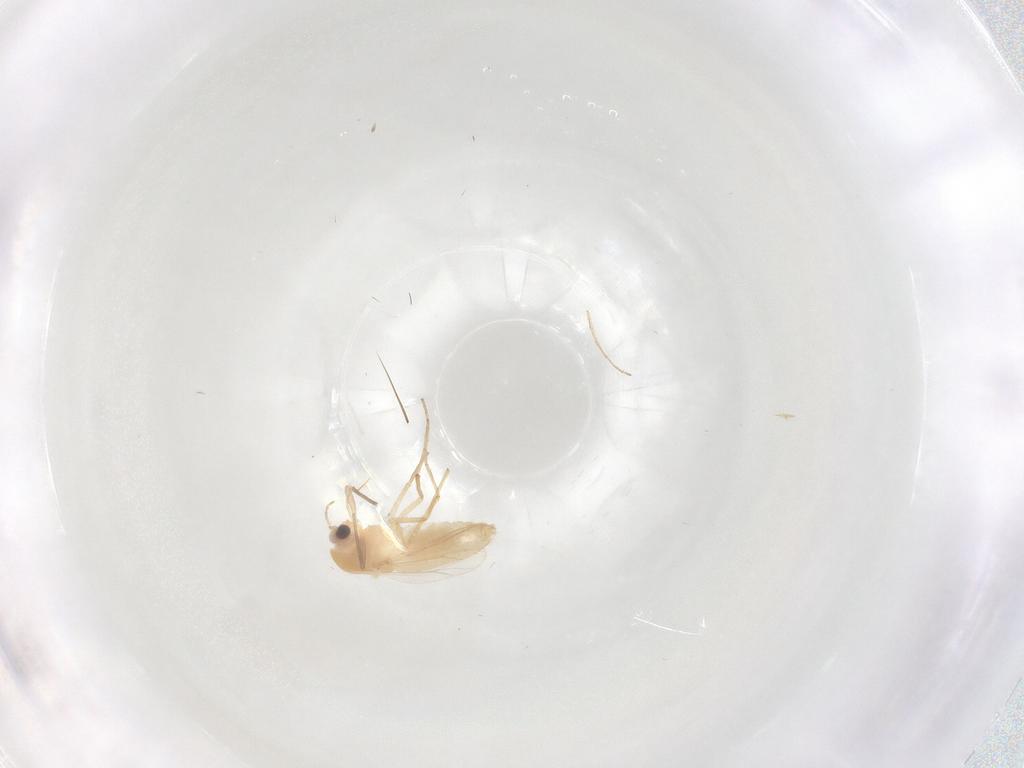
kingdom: Animalia
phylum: Arthropoda
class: Insecta
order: Diptera
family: Chironomidae
